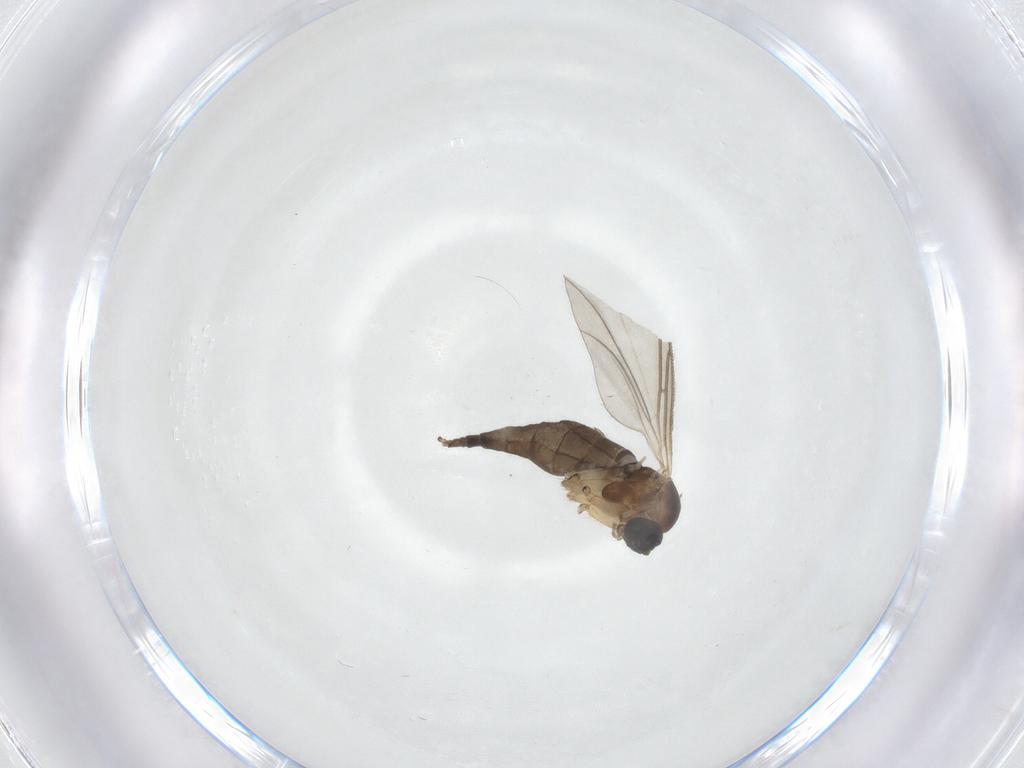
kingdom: Animalia
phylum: Arthropoda
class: Insecta
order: Diptera
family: Sciaridae
